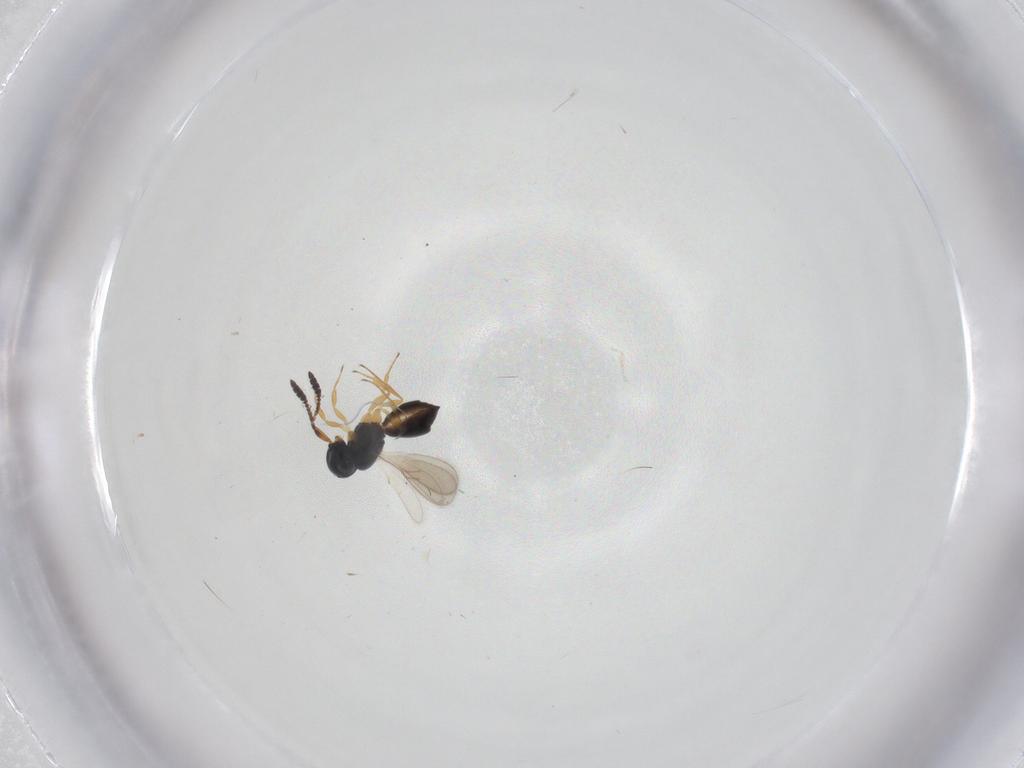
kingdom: Animalia
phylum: Arthropoda
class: Insecta
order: Hymenoptera
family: Scelionidae
